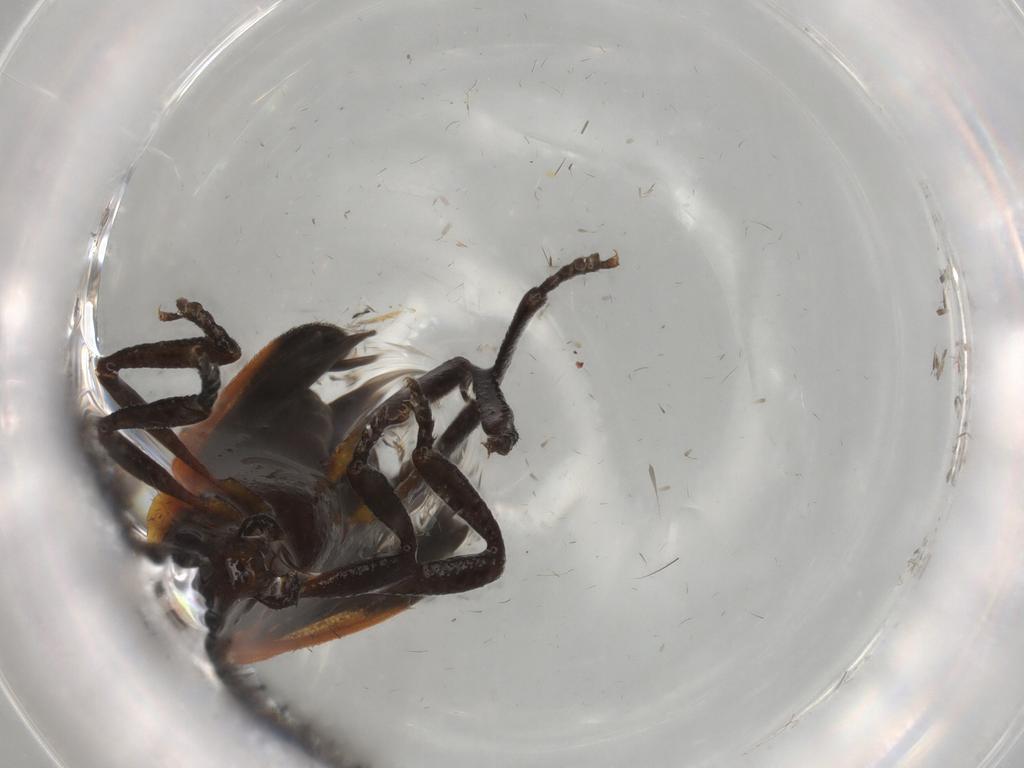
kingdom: Animalia
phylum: Arthropoda
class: Insecta
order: Coleoptera
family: Lycidae
